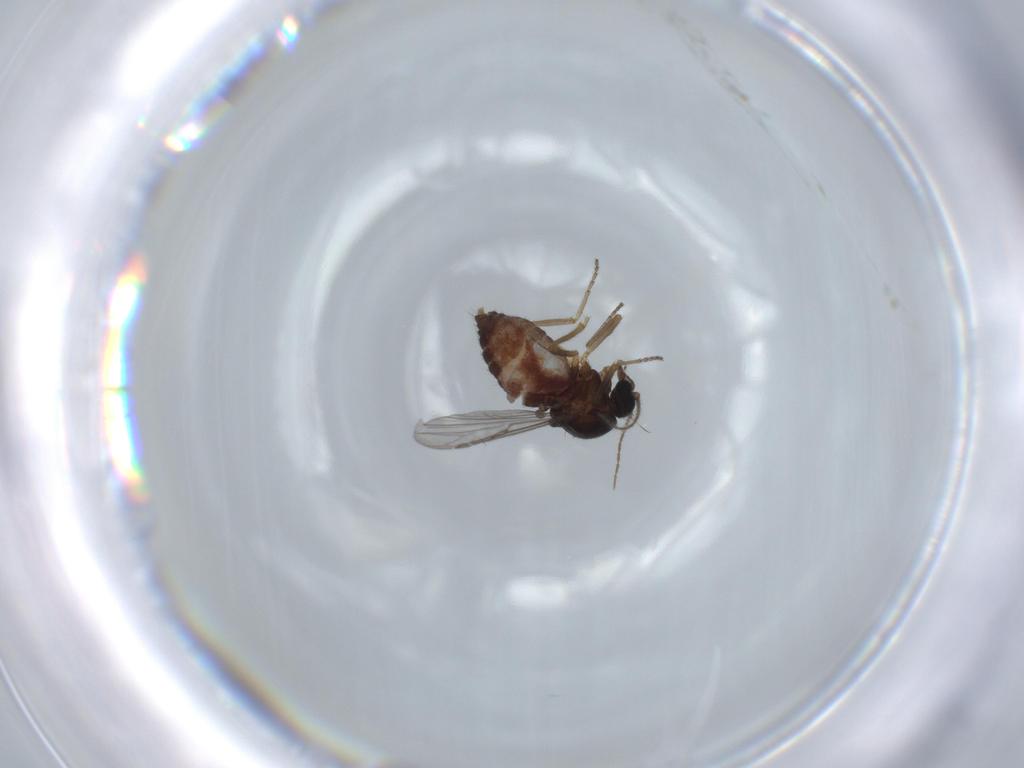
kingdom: Animalia
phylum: Arthropoda
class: Insecta
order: Diptera
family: Ceratopogonidae
